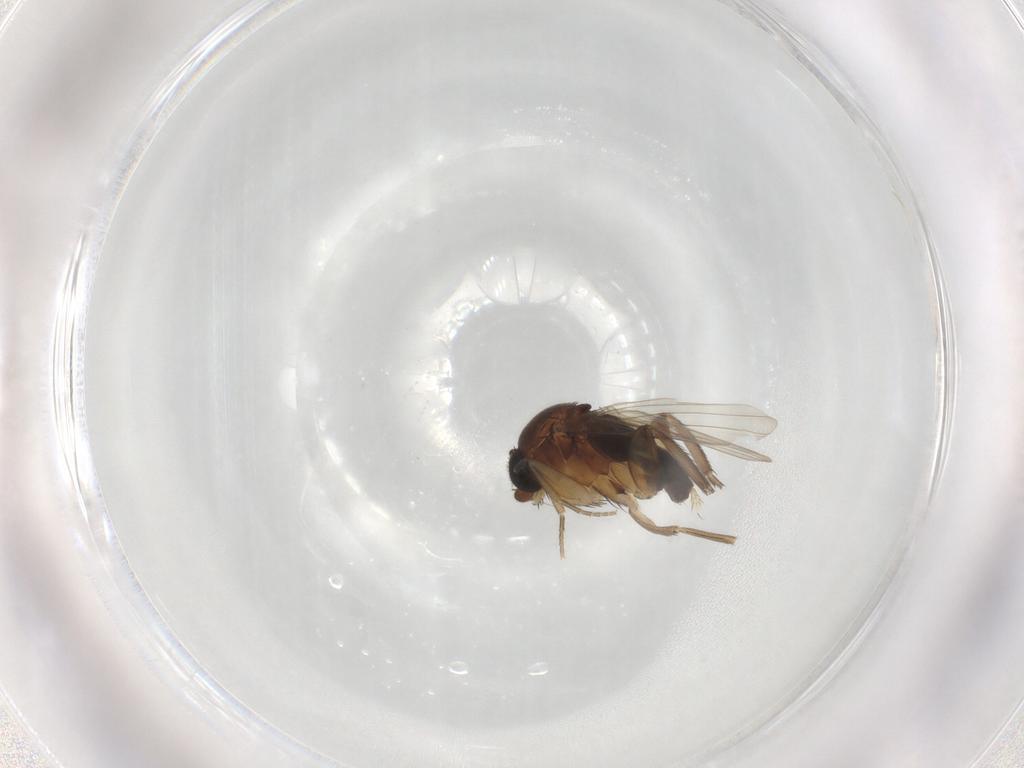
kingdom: Animalia
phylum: Arthropoda
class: Insecta
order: Diptera
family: Phoridae
